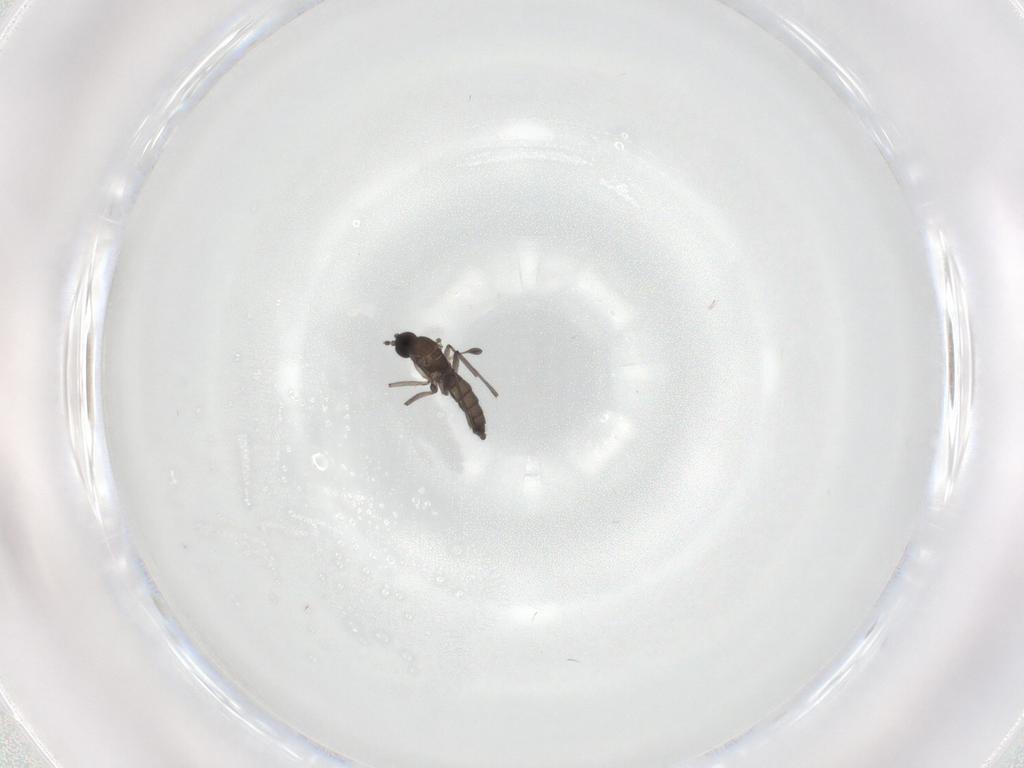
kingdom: Animalia
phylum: Arthropoda
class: Insecta
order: Diptera
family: Sciaridae
